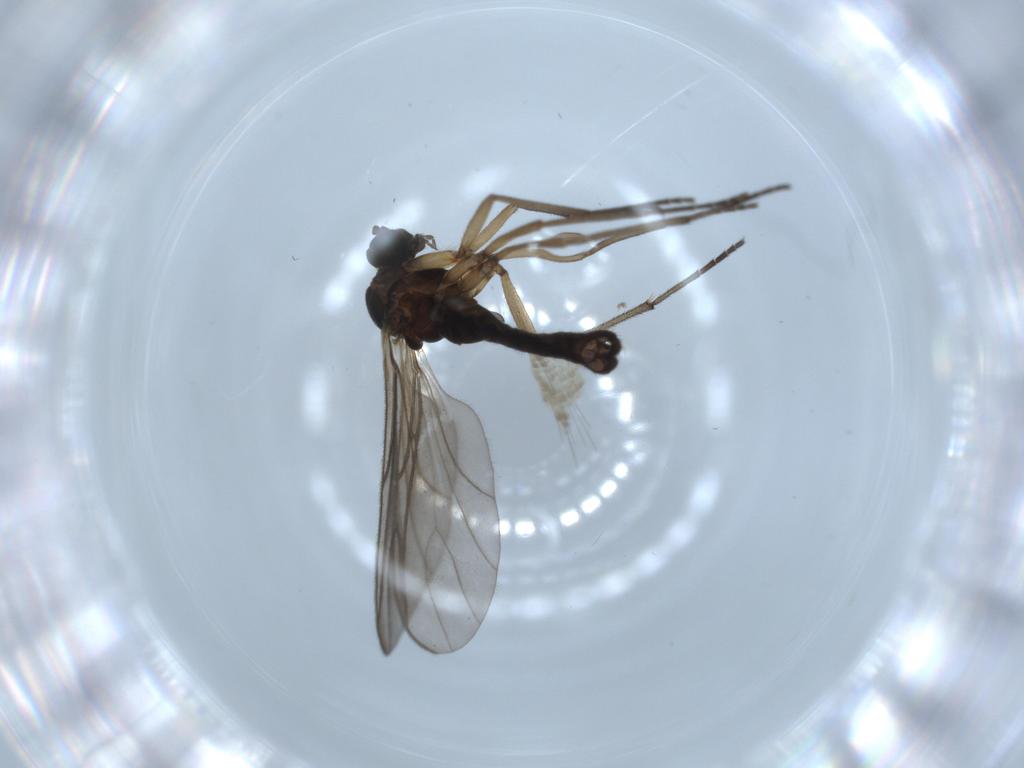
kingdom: Animalia
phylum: Arthropoda
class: Insecta
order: Diptera
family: Sciaridae
